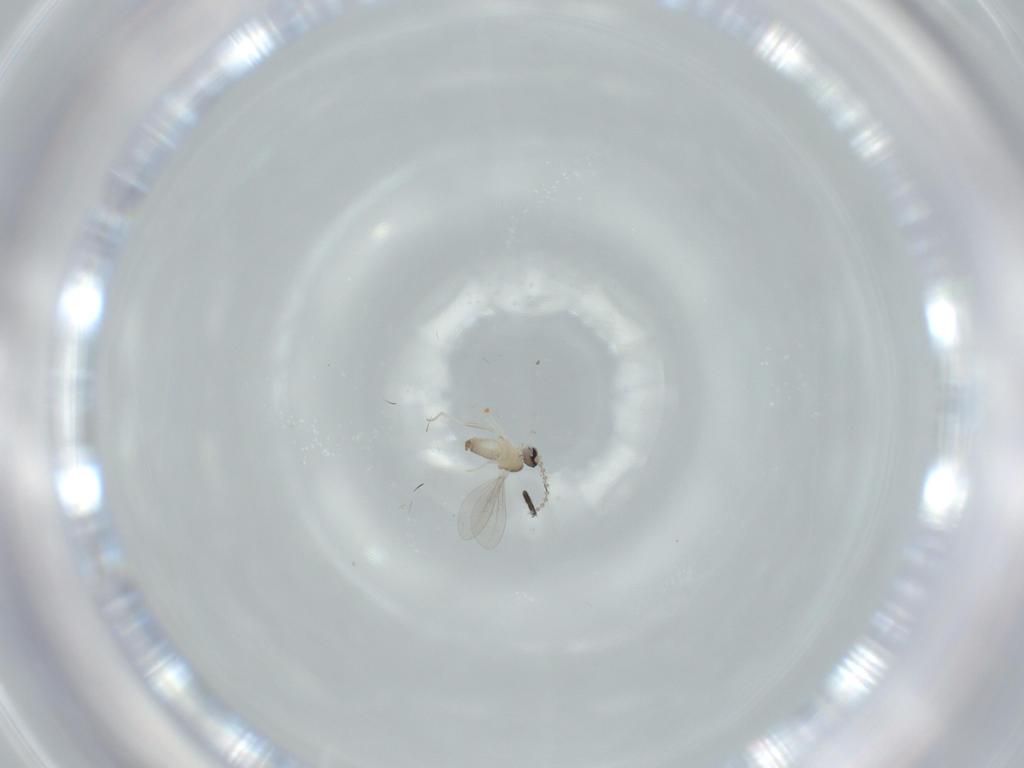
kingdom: Animalia
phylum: Arthropoda
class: Insecta
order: Diptera
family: Cecidomyiidae
